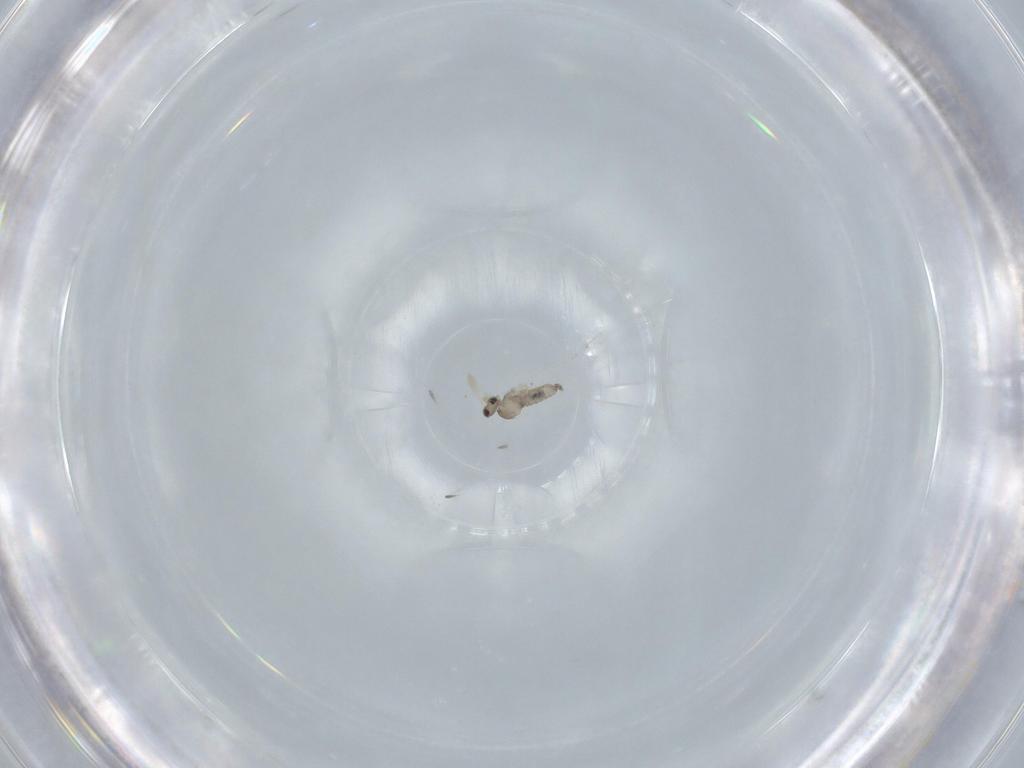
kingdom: Animalia
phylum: Arthropoda
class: Insecta
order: Diptera
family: Cecidomyiidae
